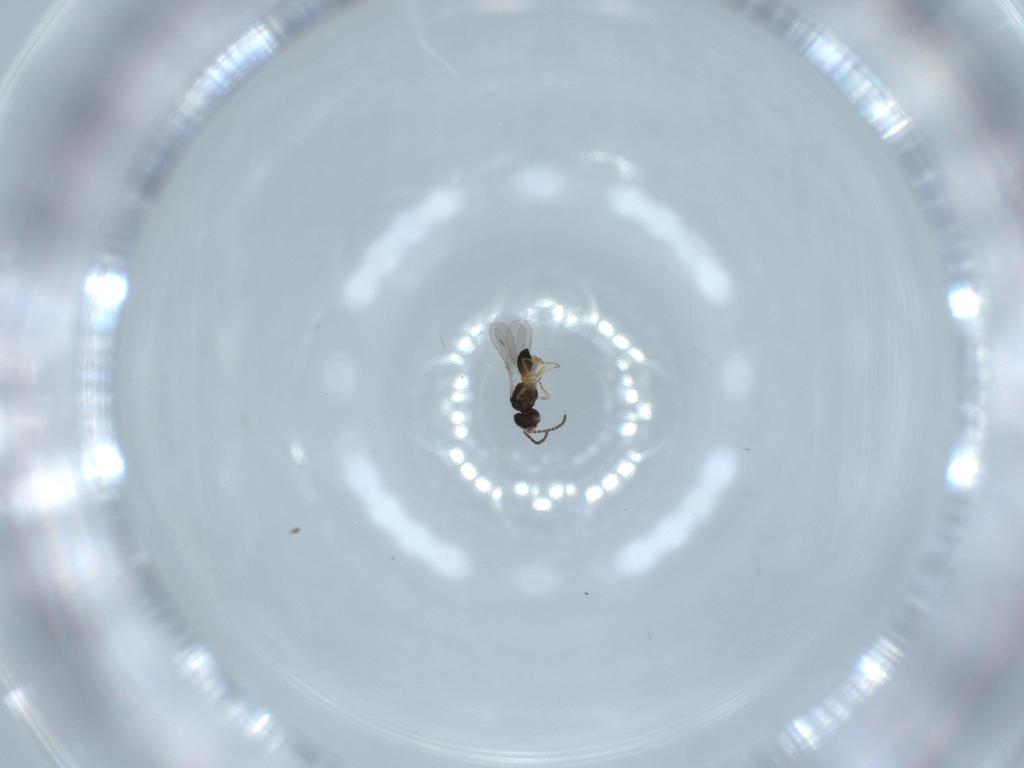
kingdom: Animalia
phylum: Arthropoda
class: Insecta
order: Hymenoptera
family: Scelionidae
